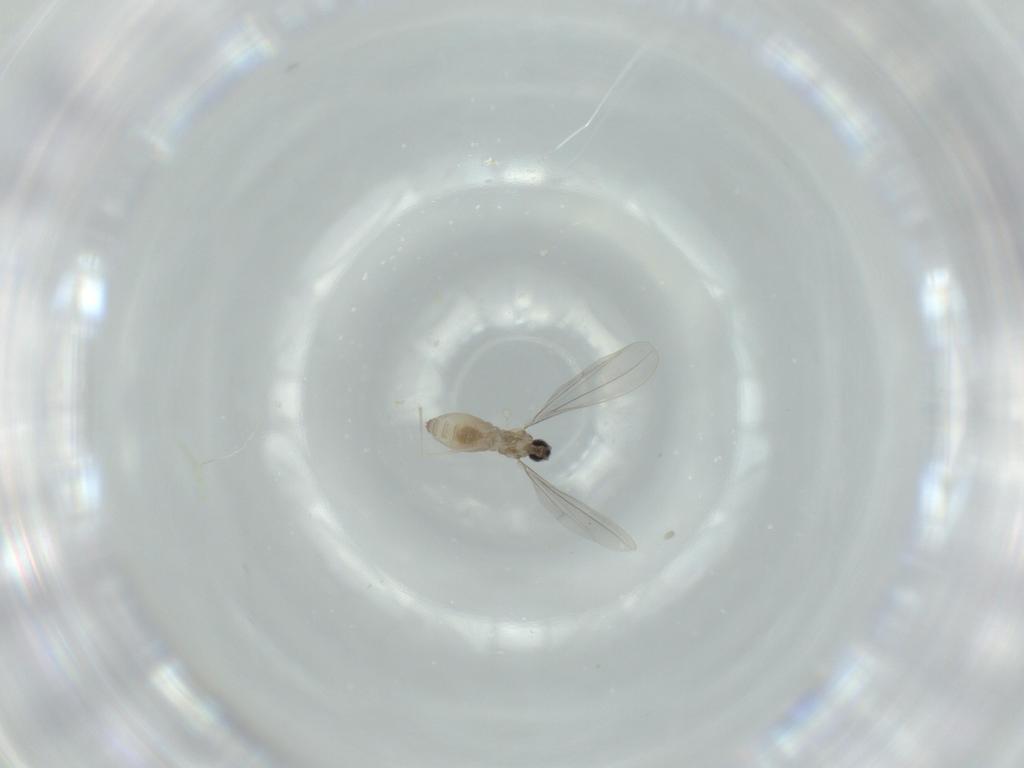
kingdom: Animalia
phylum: Arthropoda
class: Insecta
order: Diptera
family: Cecidomyiidae
